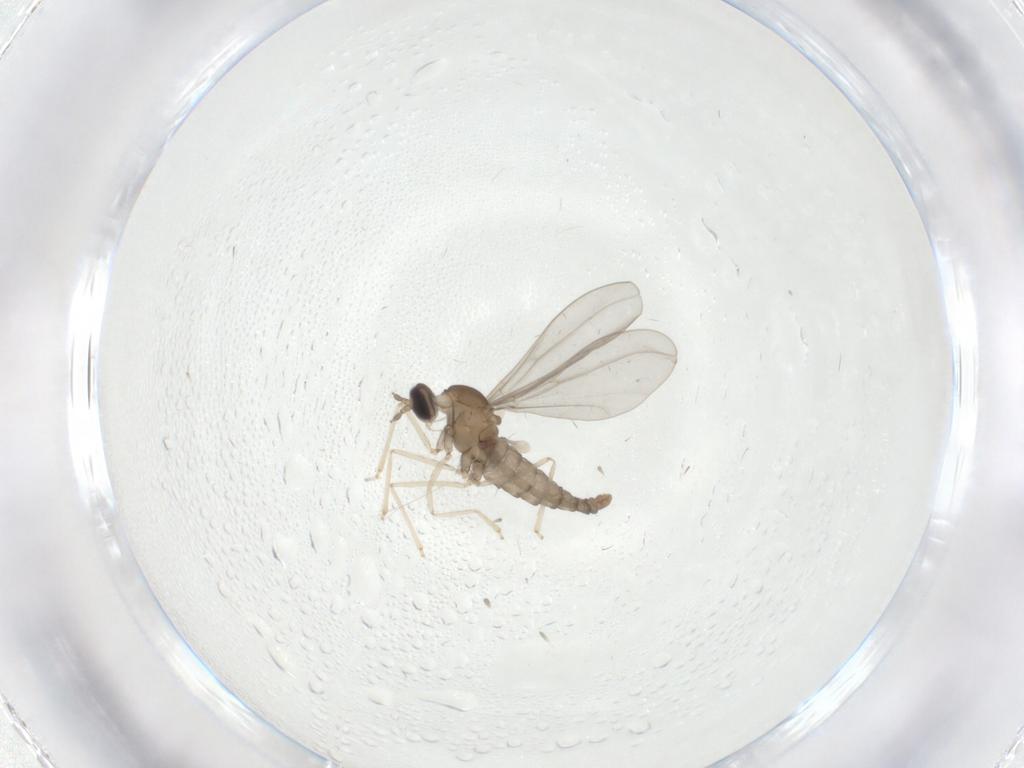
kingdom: Animalia
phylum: Arthropoda
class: Insecta
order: Diptera
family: Cecidomyiidae
